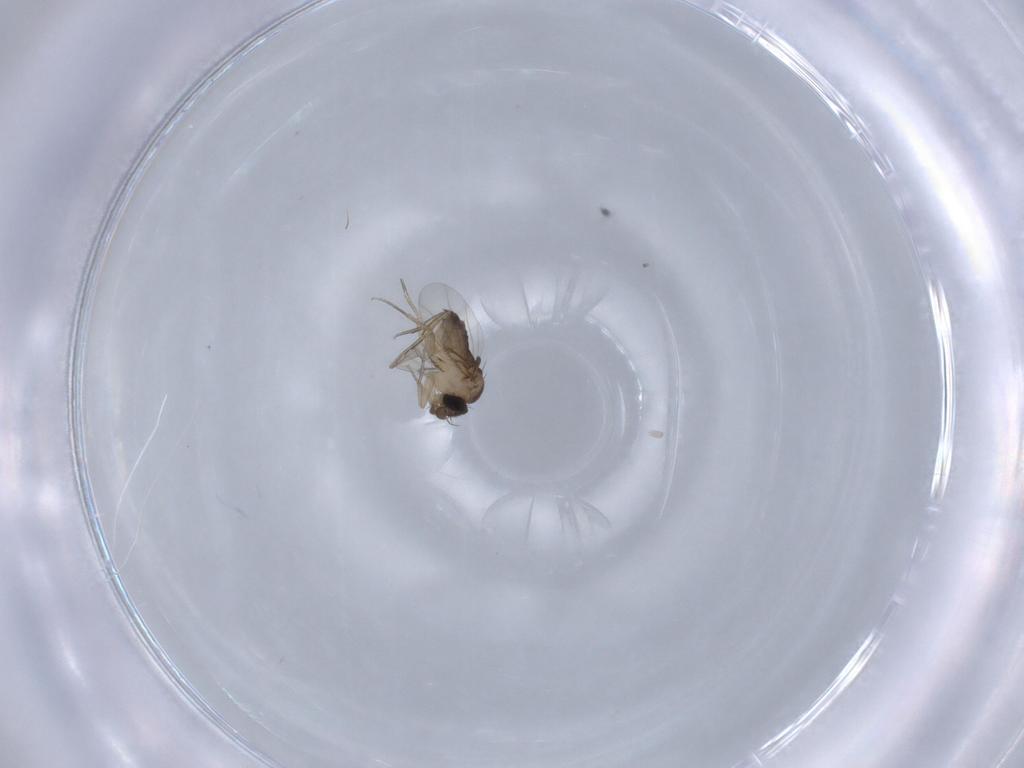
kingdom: Animalia
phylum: Arthropoda
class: Insecta
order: Diptera
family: Phoridae
